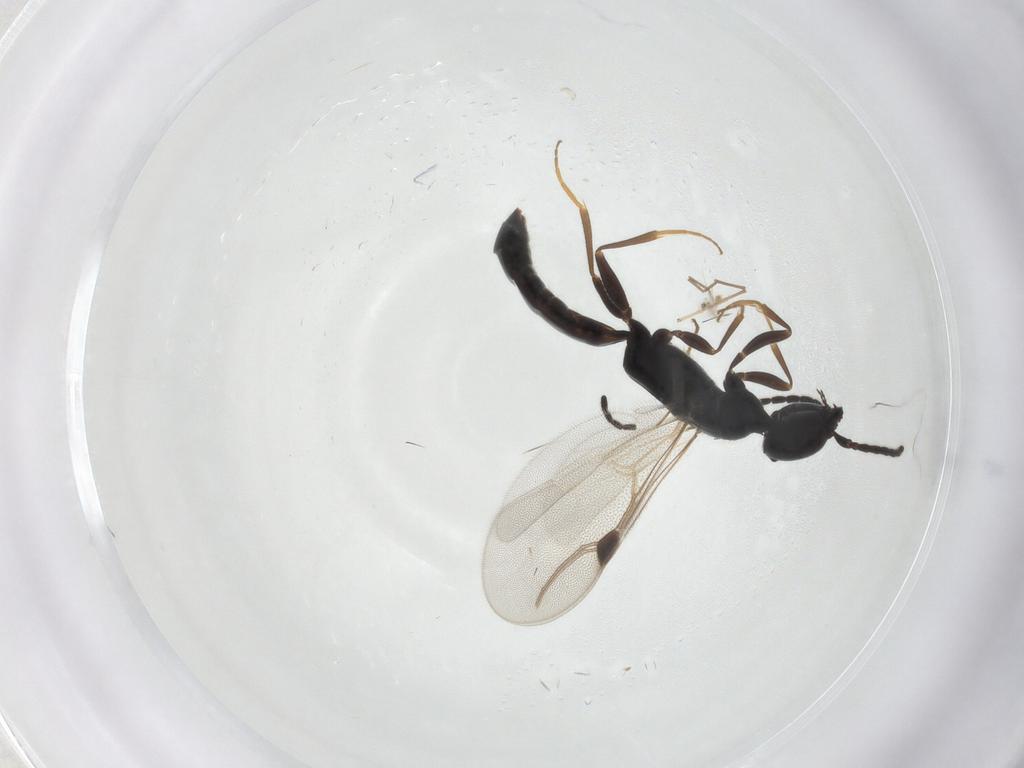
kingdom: Animalia
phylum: Arthropoda
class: Insecta
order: Hymenoptera
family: Bethylidae
